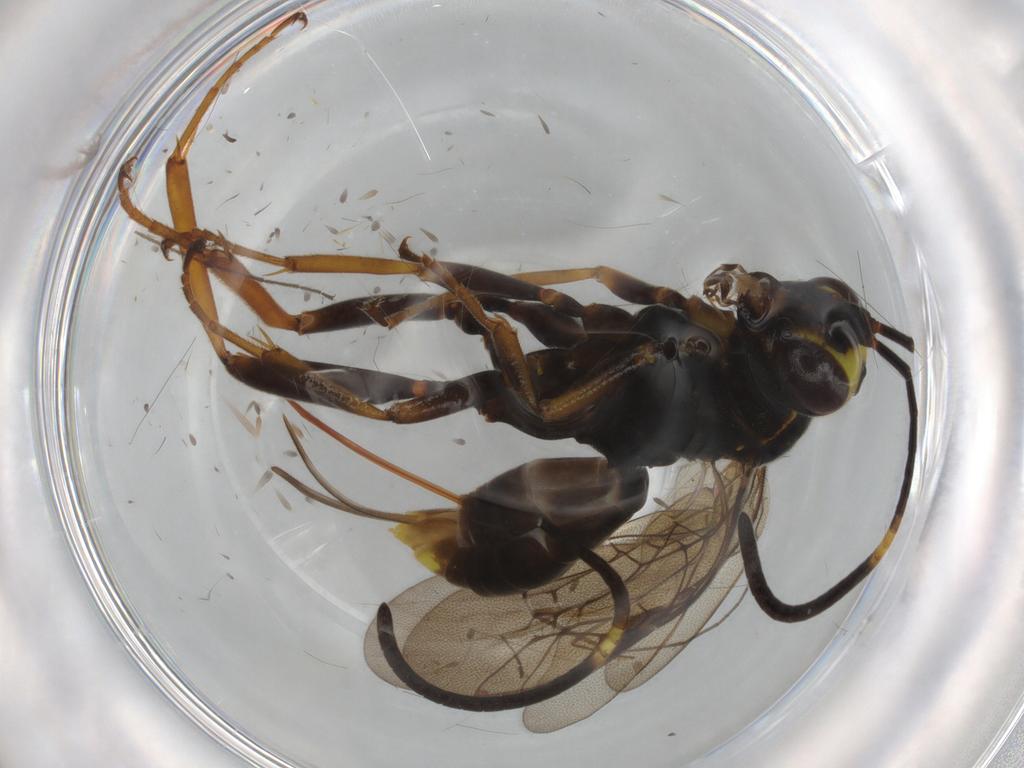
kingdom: Animalia
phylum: Arthropoda
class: Insecta
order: Hymenoptera
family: Ichneumonidae
